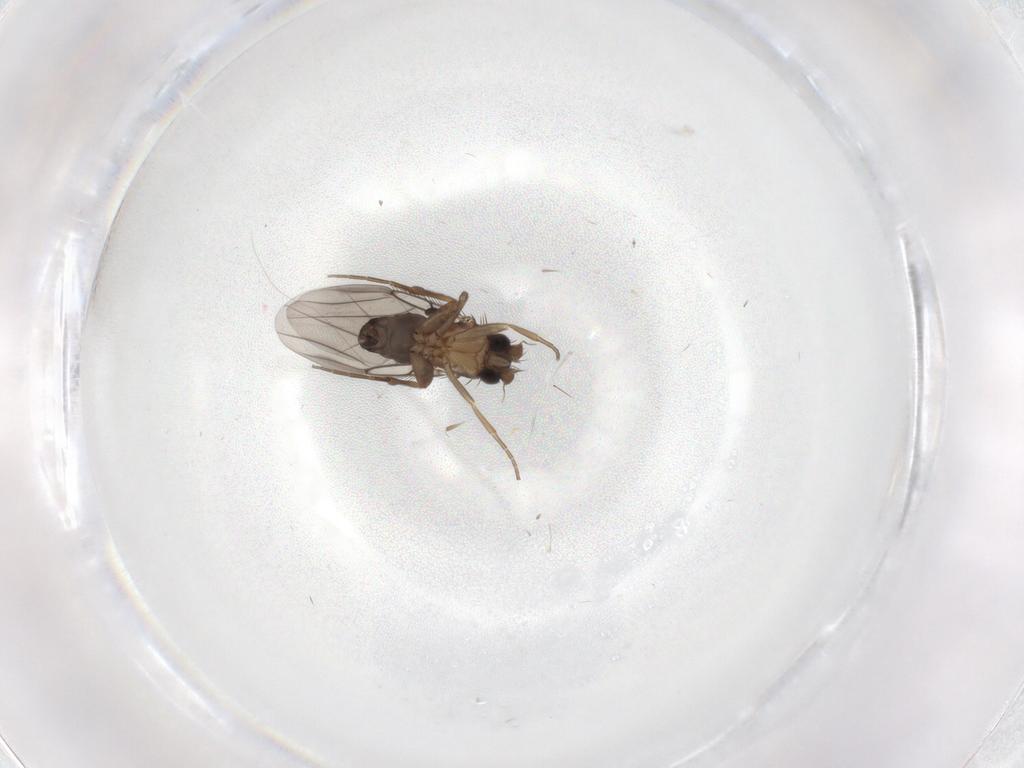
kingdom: Animalia
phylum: Arthropoda
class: Insecta
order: Diptera
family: Phoridae
